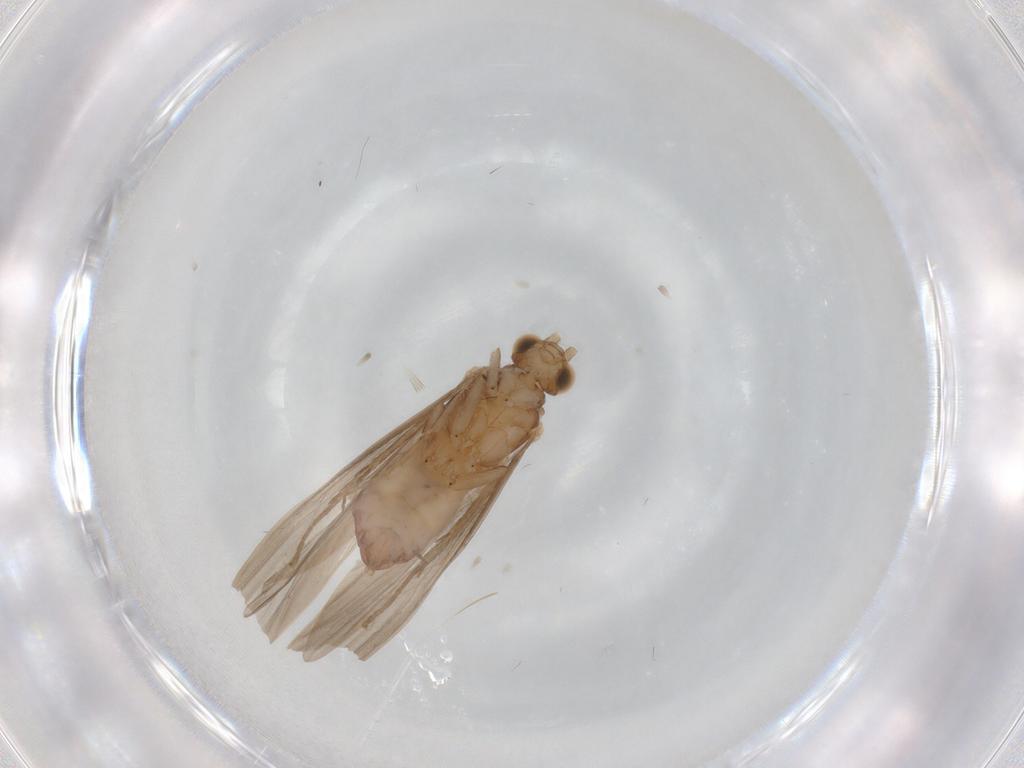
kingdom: Animalia
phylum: Arthropoda
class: Insecta
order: Trichoptera
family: Psychomyiidae
